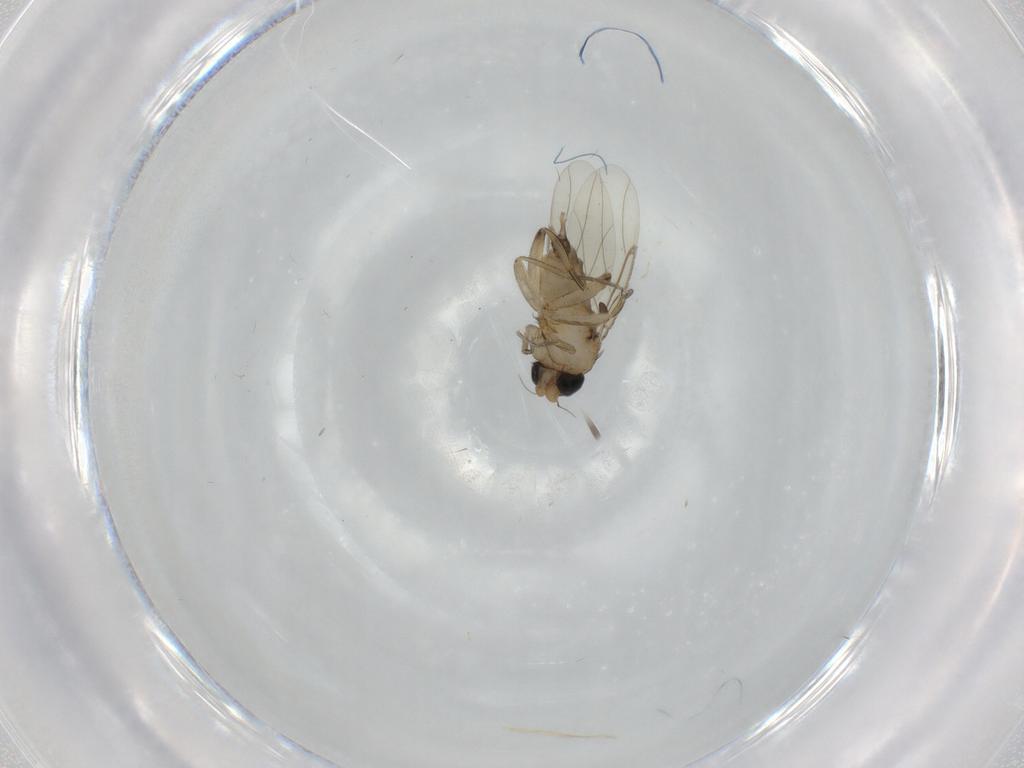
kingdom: Animalia
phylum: Arthropoda
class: Insecta
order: Diptera
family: Phoridae
